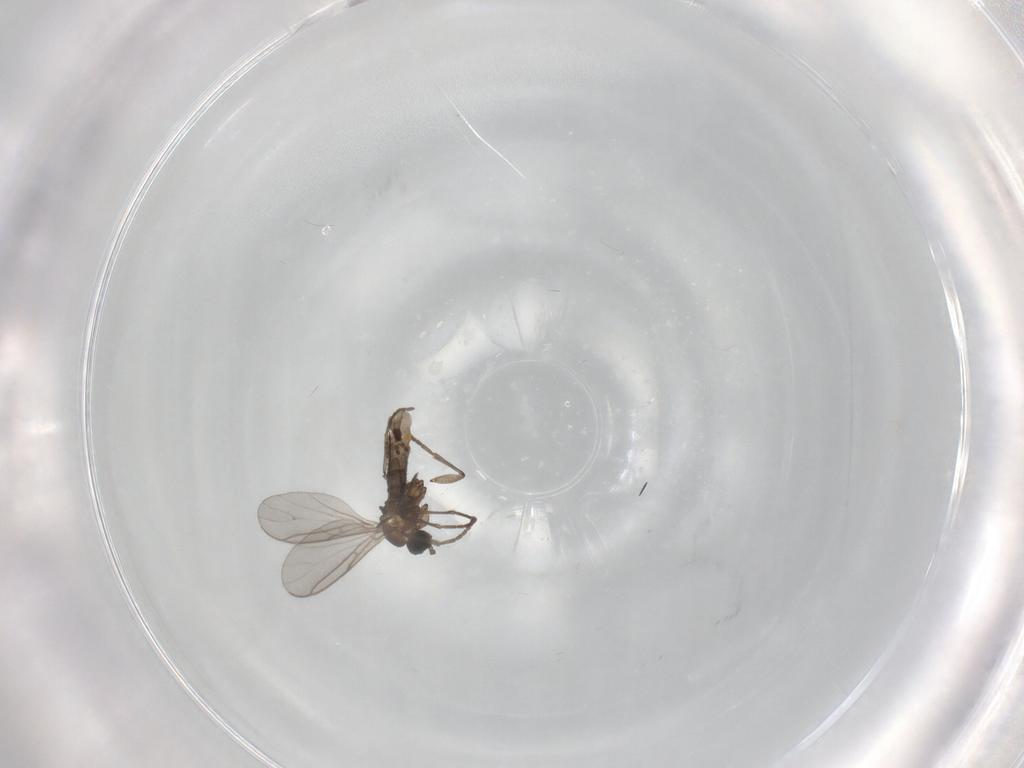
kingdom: Animalia
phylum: Arthropoda
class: Insecta
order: Diptera
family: Sciaridae
